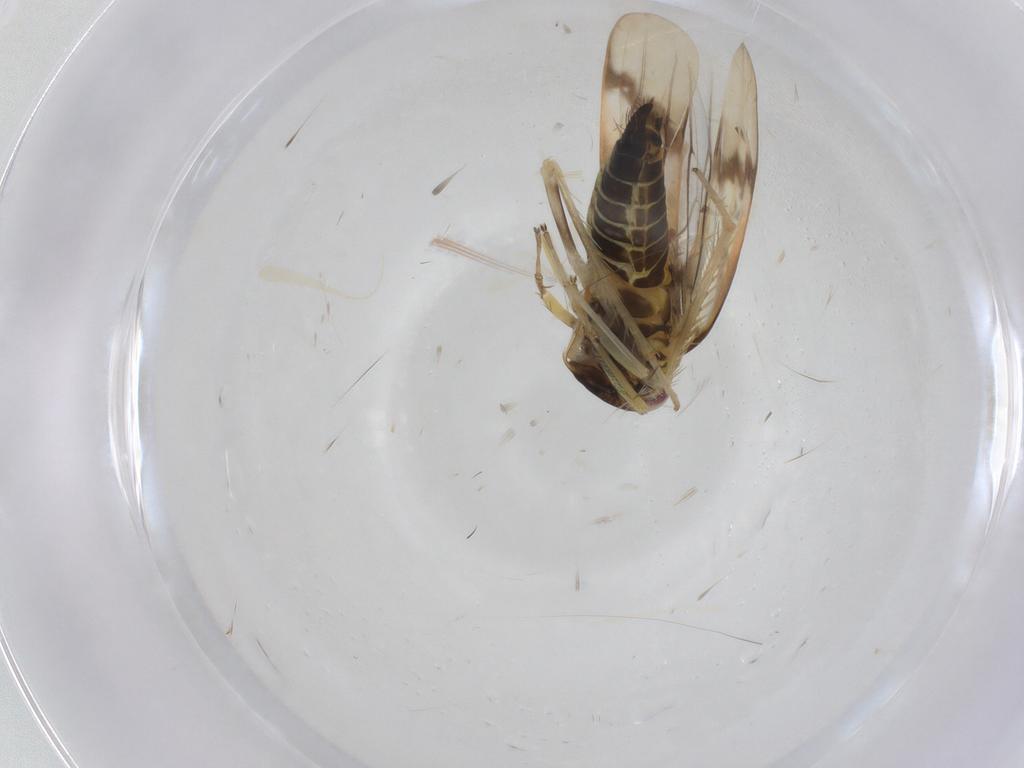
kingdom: Animalia
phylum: Arthropoda
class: Insecta
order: Hemiptera
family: Cicadellidae
